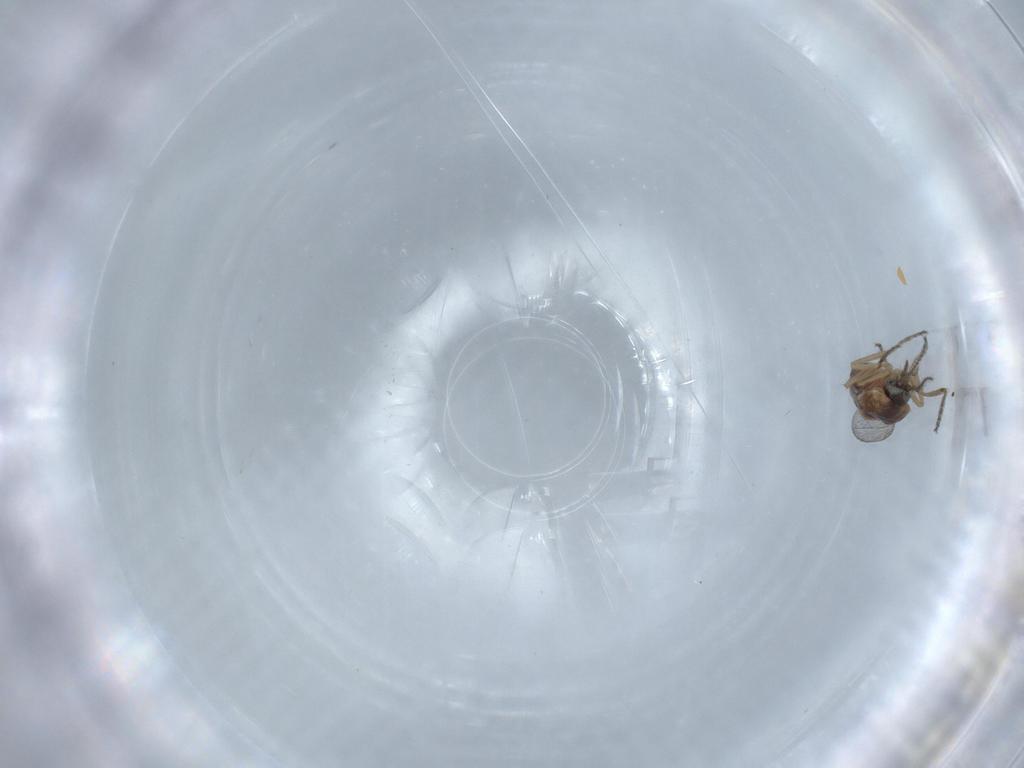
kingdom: Animalia
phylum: Arthropoda
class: Insecta
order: Diptera
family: Ceratopogonidae
